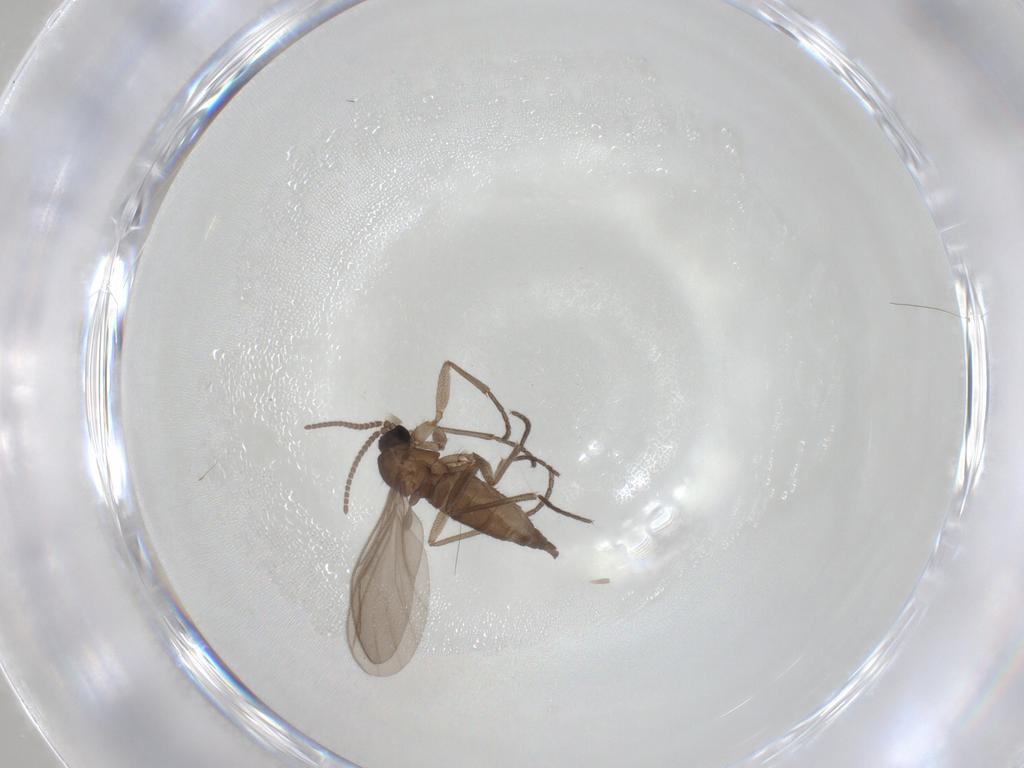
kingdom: Animalia
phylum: Arthropoda
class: Insecta
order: Diptera
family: Sciaridae
